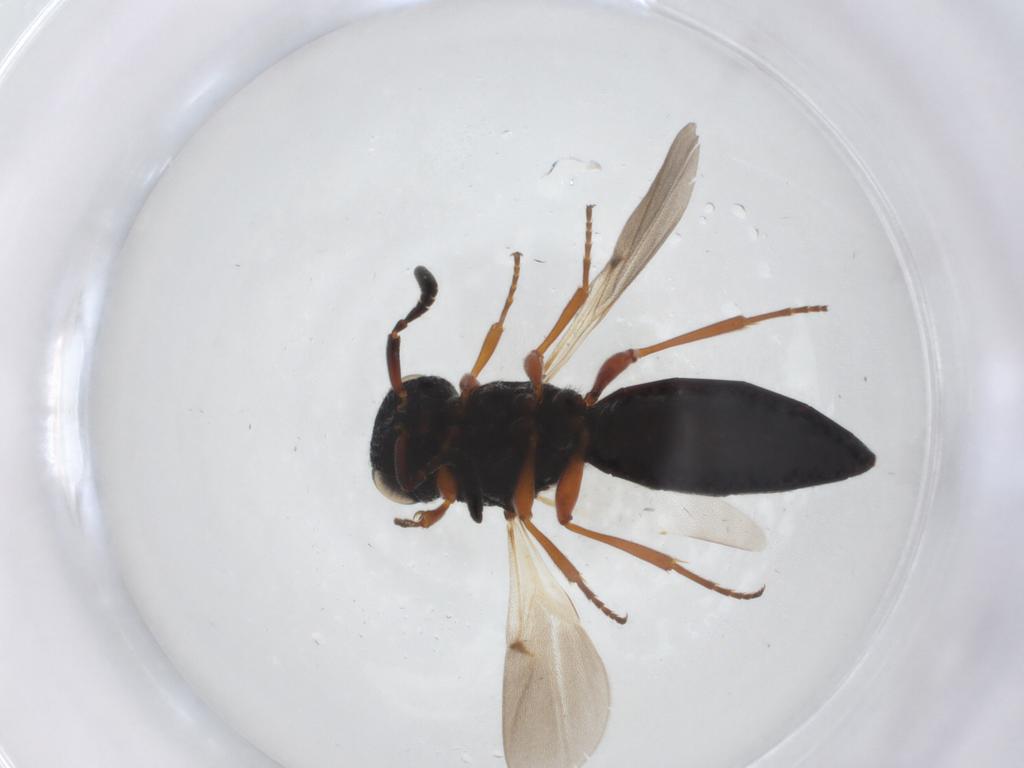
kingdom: Animalia
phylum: Arthropoda
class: Insecta
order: Hymenoptera
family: Scelionidae
